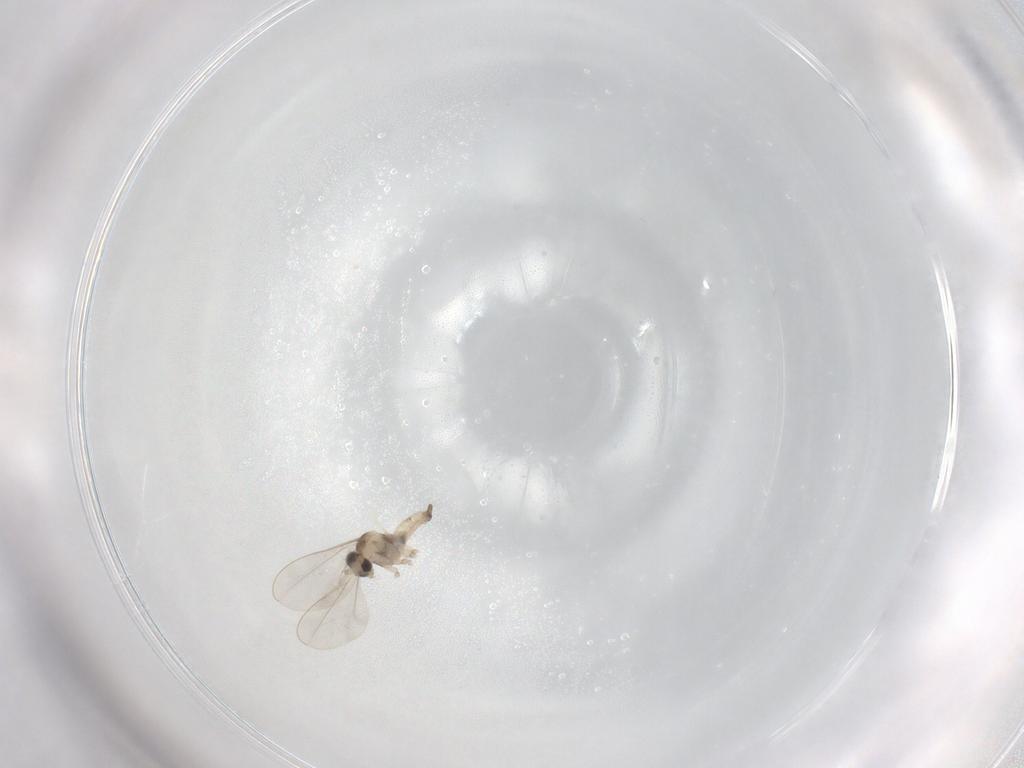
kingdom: Animalia
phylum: Arthropoda
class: Insecta
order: Diptera
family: Cecidomyiidae
